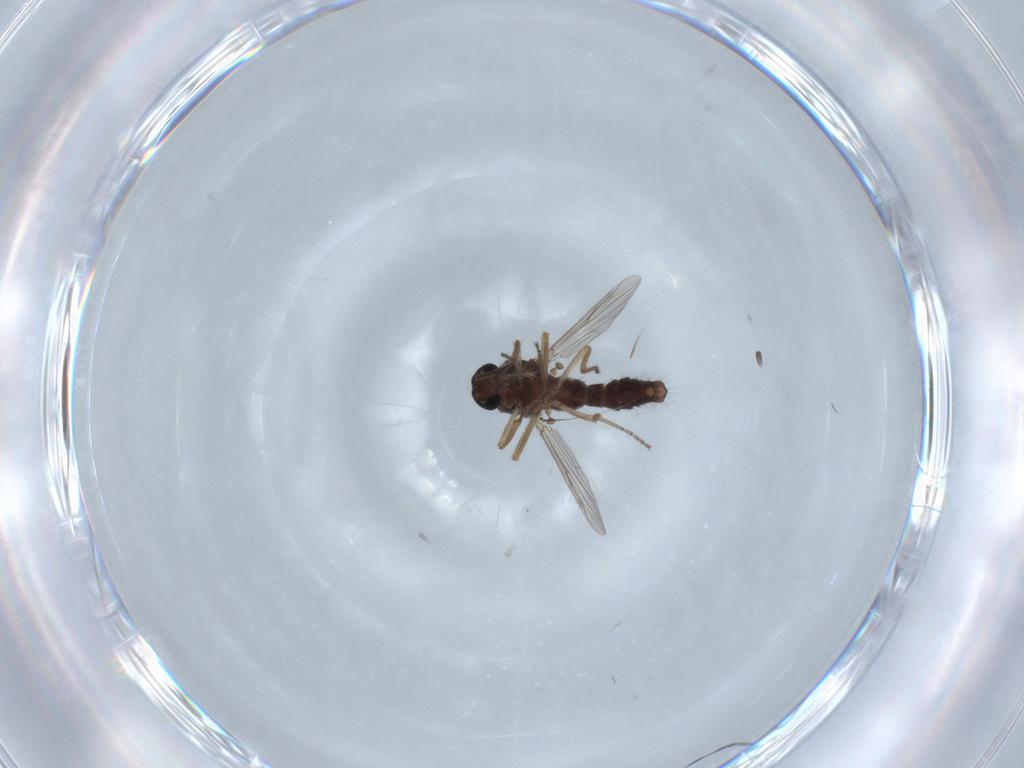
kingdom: Animalia
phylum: Arthropoda
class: Insecta
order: Diptera
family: Ceratopogonidae
